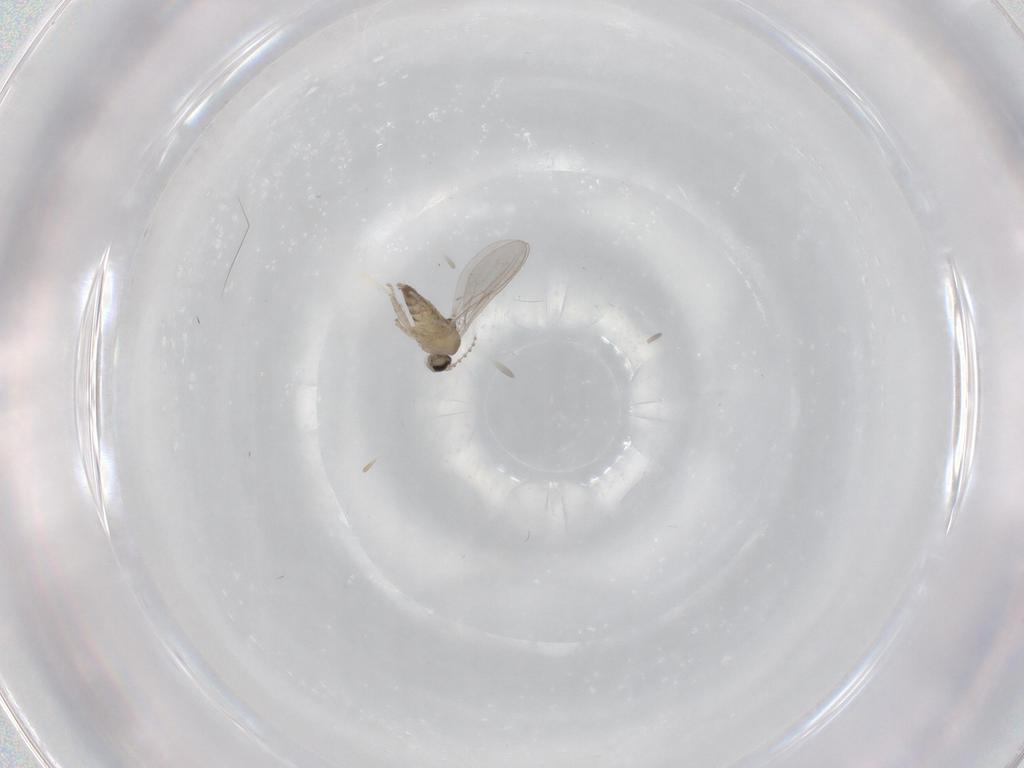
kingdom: Animalia
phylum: Arthropoda
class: Insecta
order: Diptera
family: Cecidomyiidae
